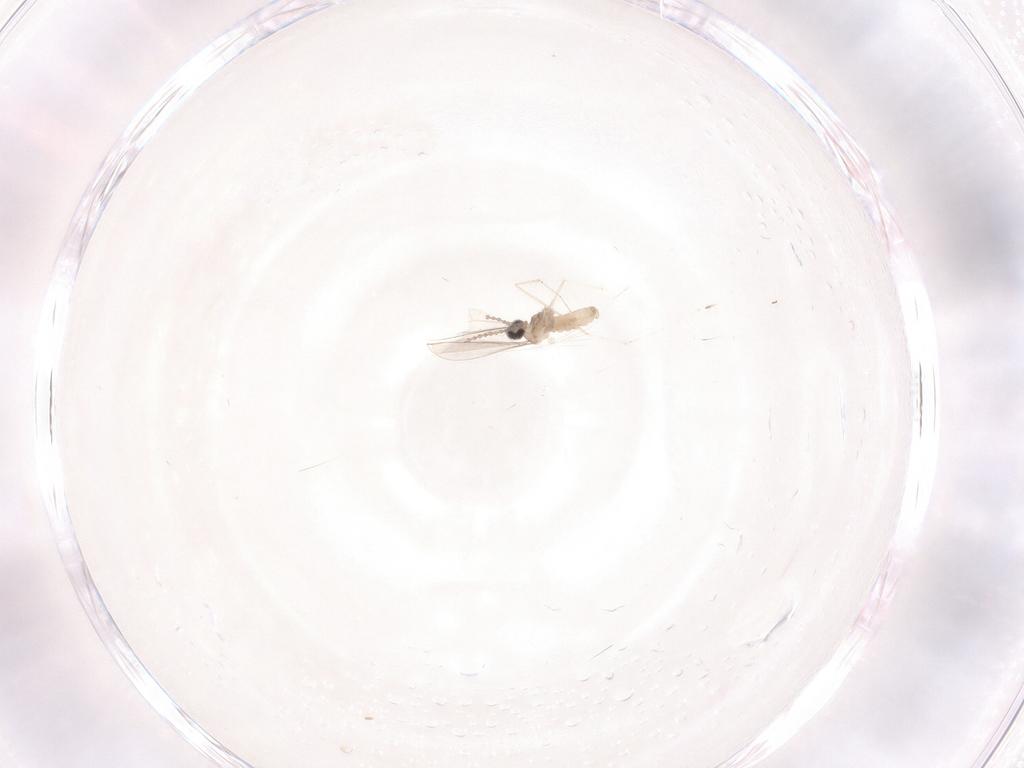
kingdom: Animalia
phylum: Arthropoda
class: Insecta
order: Diptera
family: Cecidomyiidae
